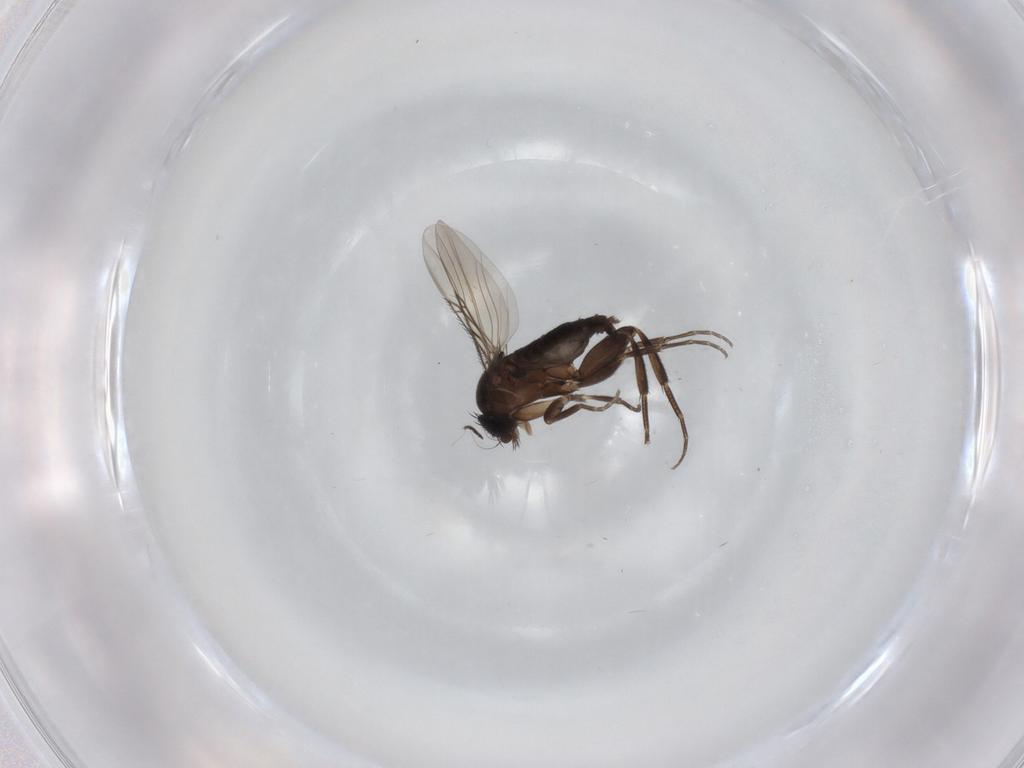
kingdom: Animalia
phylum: Arthropoda
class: Insecta
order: Diptera
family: Phoridae
